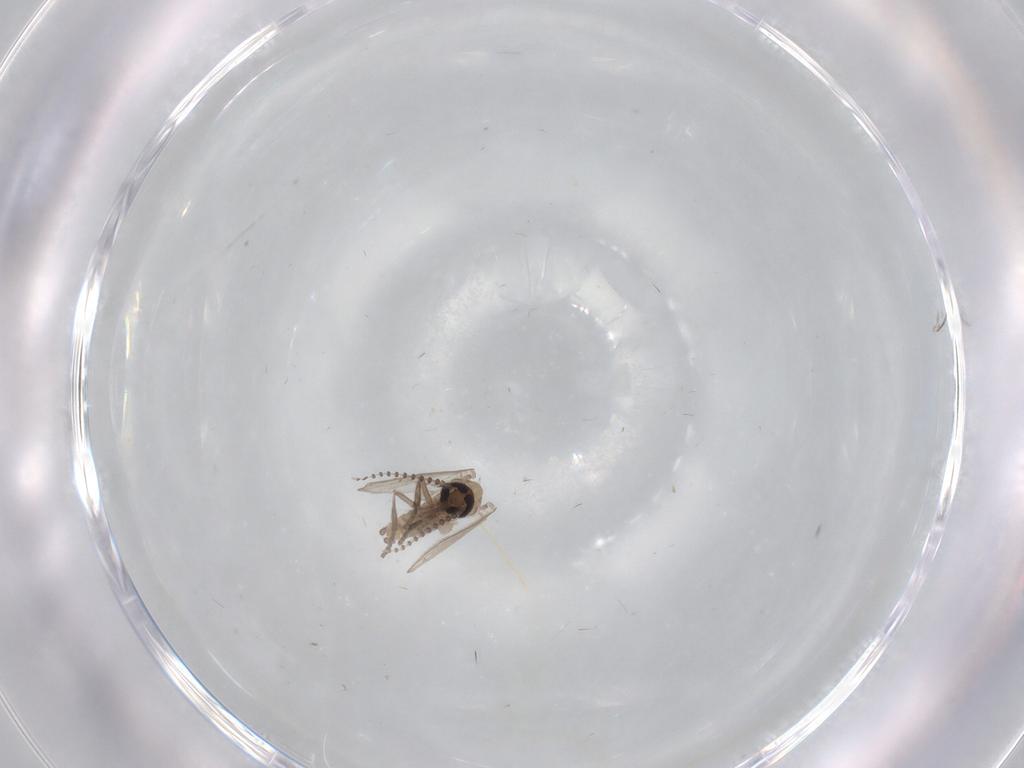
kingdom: Animalia
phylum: Arthropoda
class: Insecta
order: Diptera
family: Psychodidae
